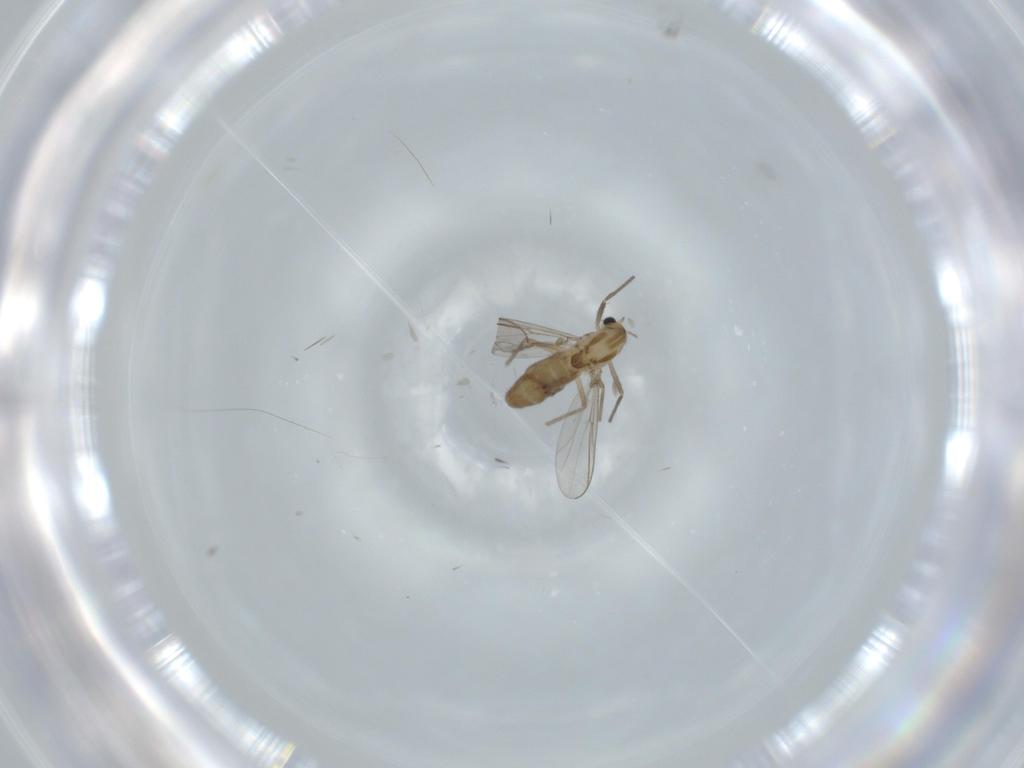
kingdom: Animalia
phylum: Arthropoda
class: Insecta
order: Diptera
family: Chironomidae
